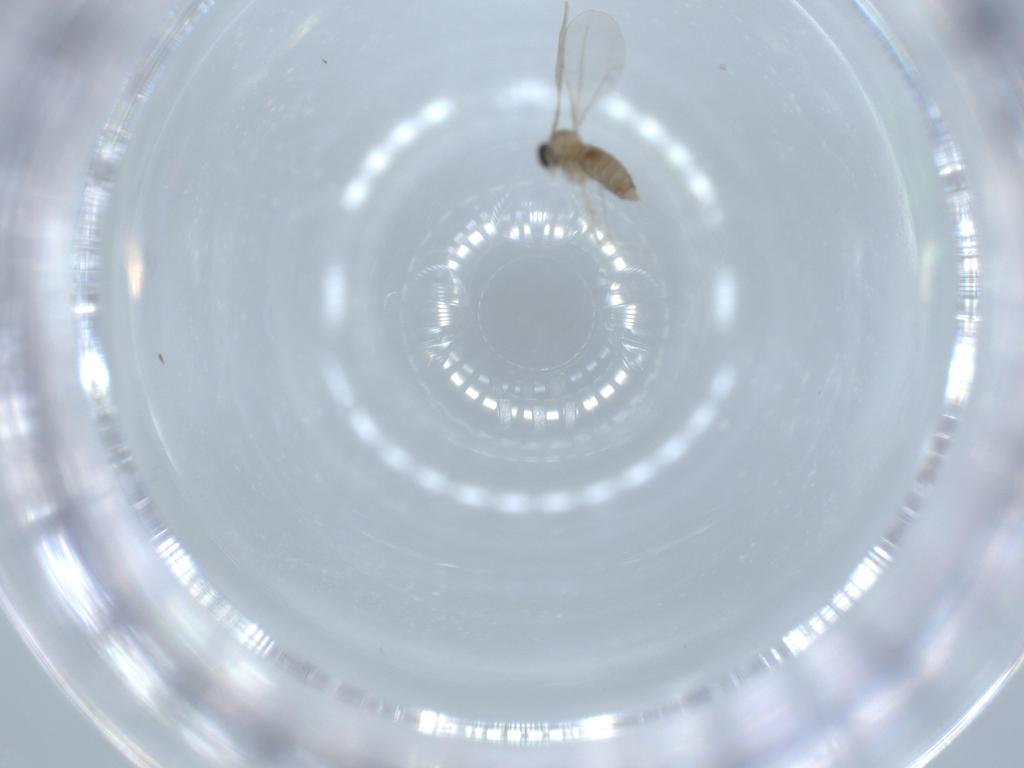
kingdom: Animalia
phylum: Arthropoda
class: Insecta
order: Diptera
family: Cecidomyiidae
